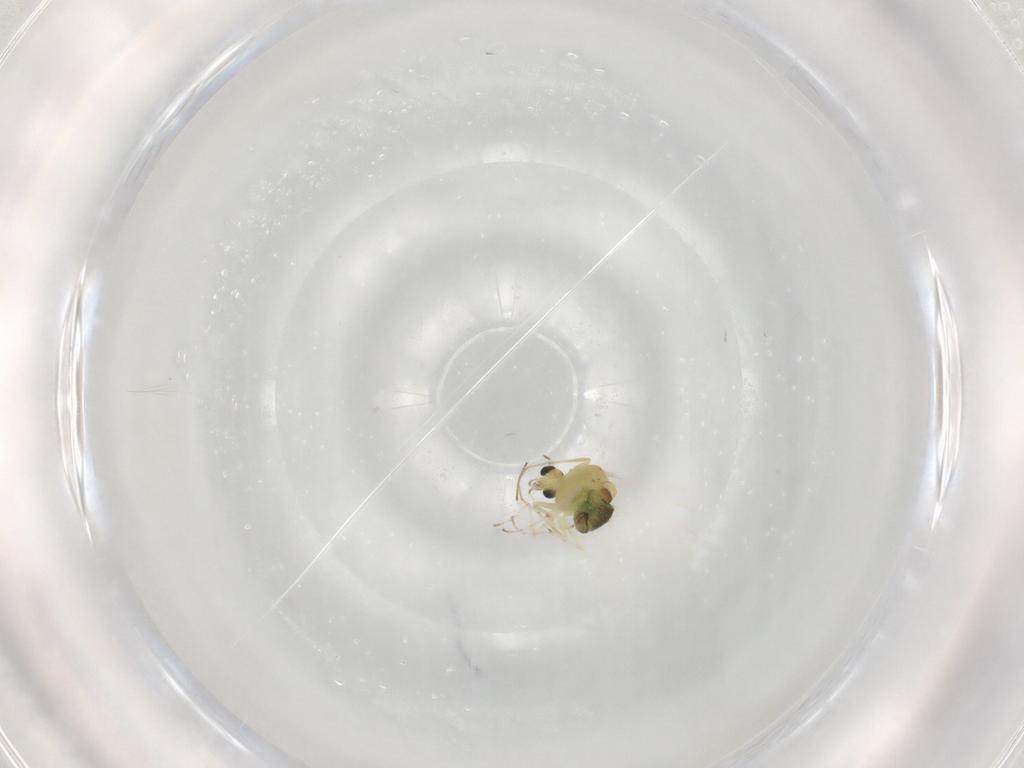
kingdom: Animalia
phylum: Arthropoda
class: Insecta
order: Diptera
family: Chironomidae
